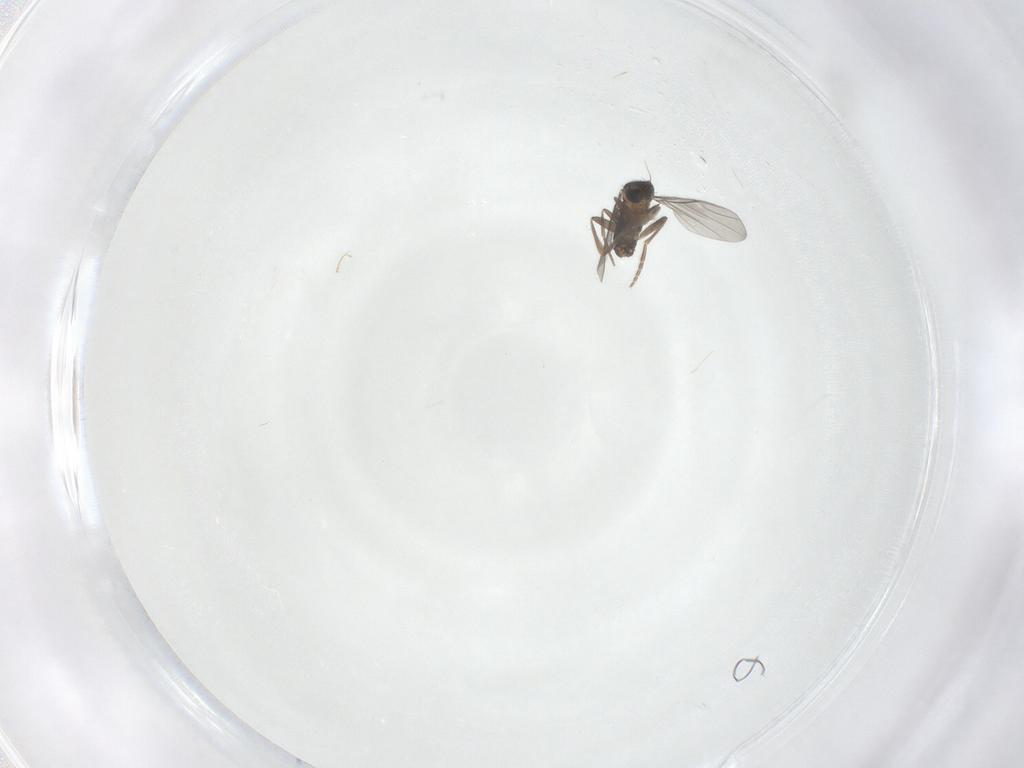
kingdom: Animalia
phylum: Arthropoda
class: Insecta
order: Diptera
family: Phoridae
